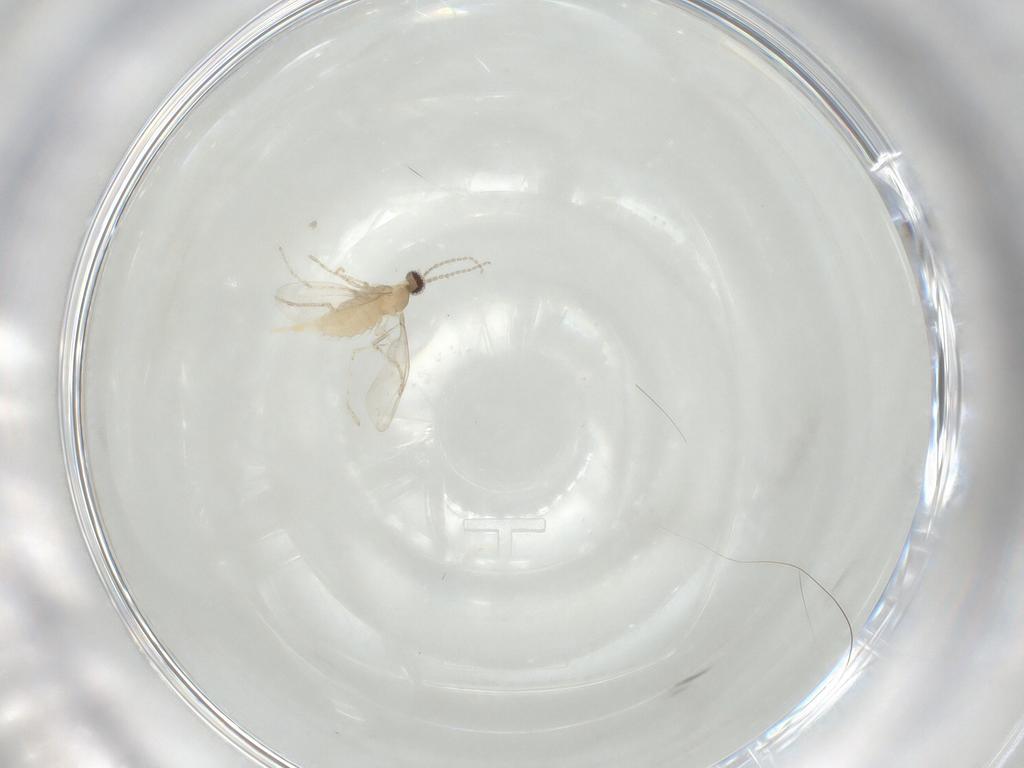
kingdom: Animalia
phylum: Arthropoda
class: Insecta
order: Diptera
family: Cecidomyiidae
